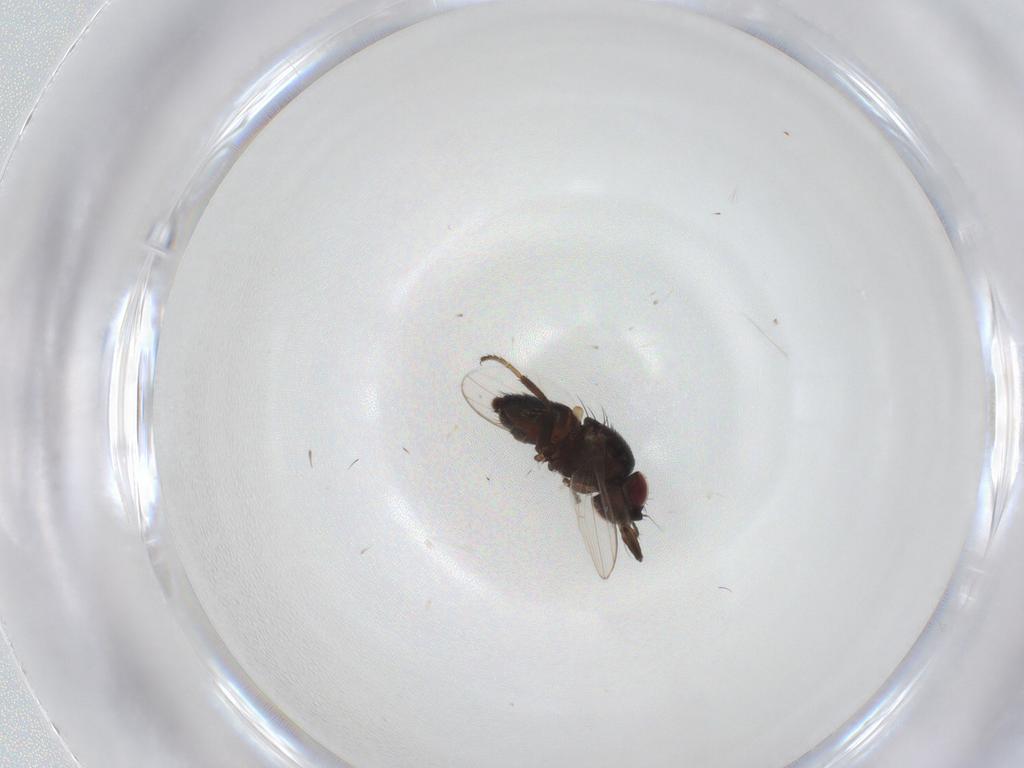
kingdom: Animalia
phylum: Arthropoda
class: Insecta
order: Diptera
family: Milichiidae
